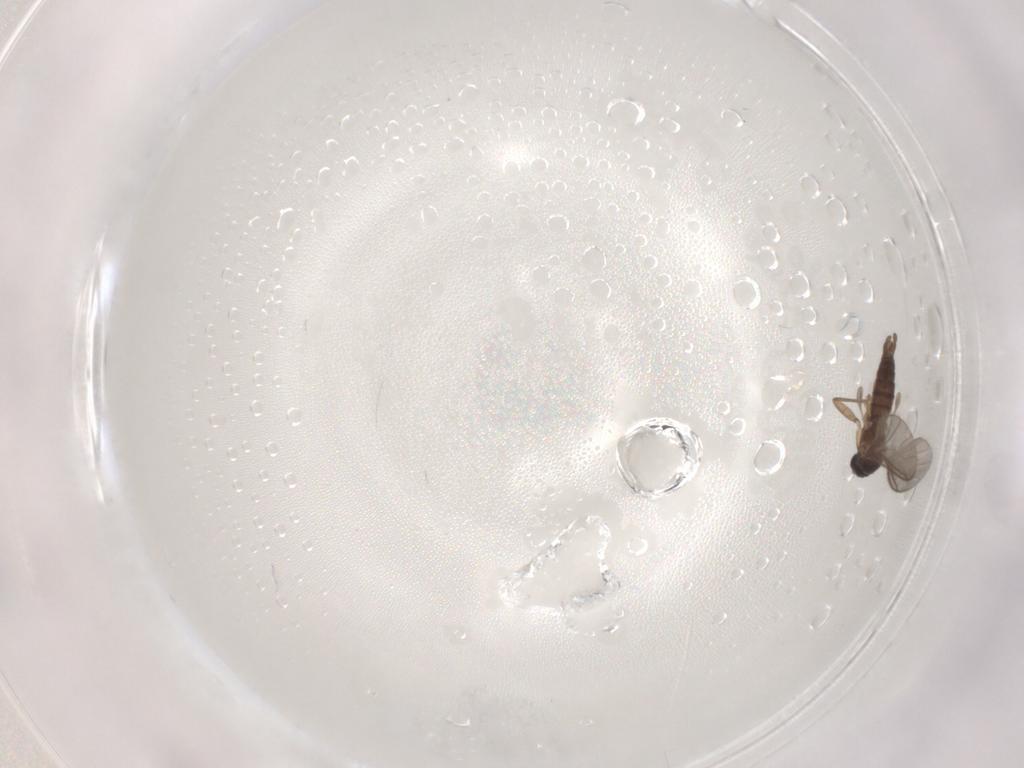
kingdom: Animalia
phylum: Arthropoda
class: Insecta
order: Diptera
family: Sciaridae
